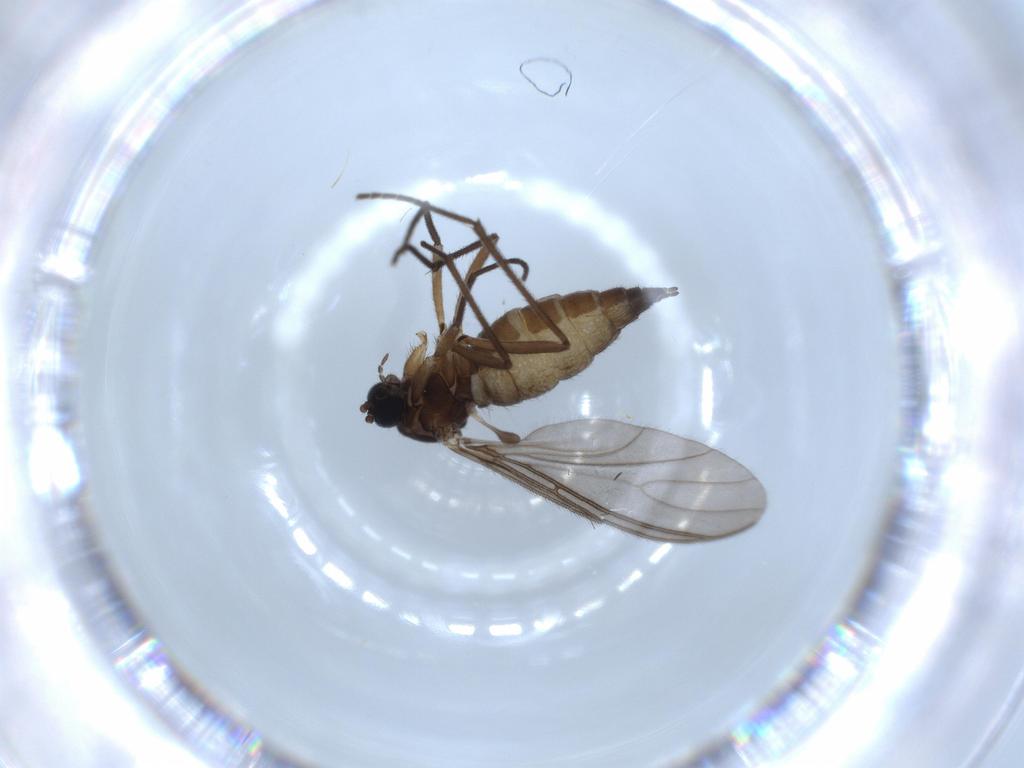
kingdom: Animalia
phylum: Arthropoda
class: Insecta
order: Diptera
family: Sciaridae
